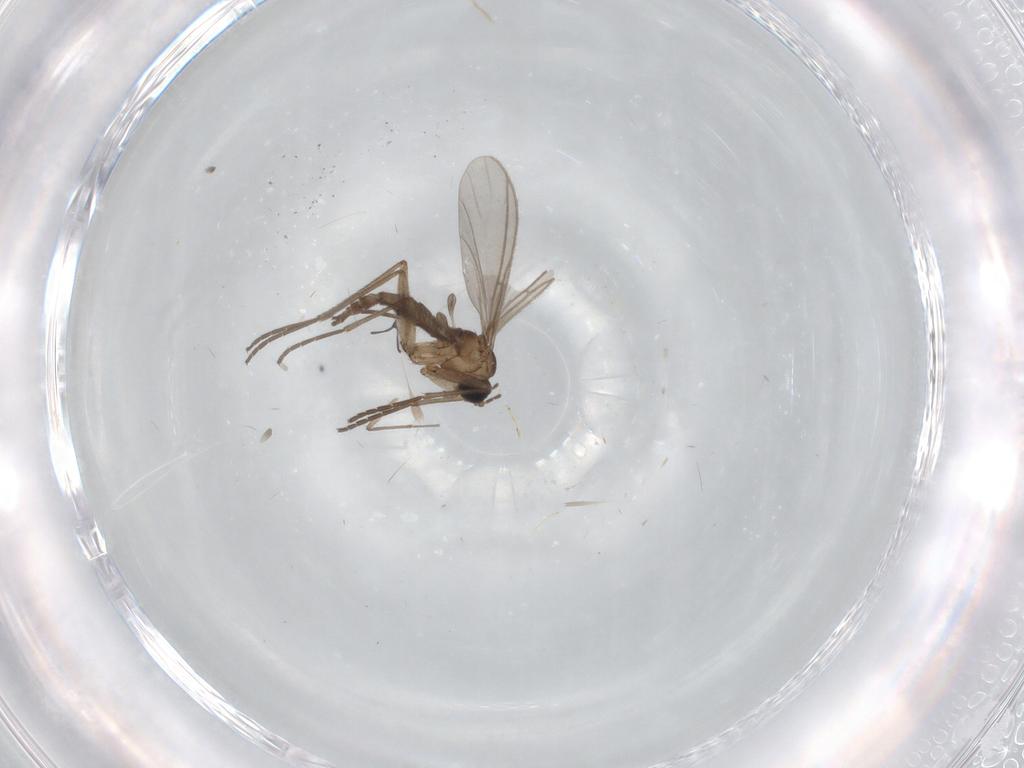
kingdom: Animalia
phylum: Arthropoda
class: Insecta
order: Diptera
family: Sciaridae
